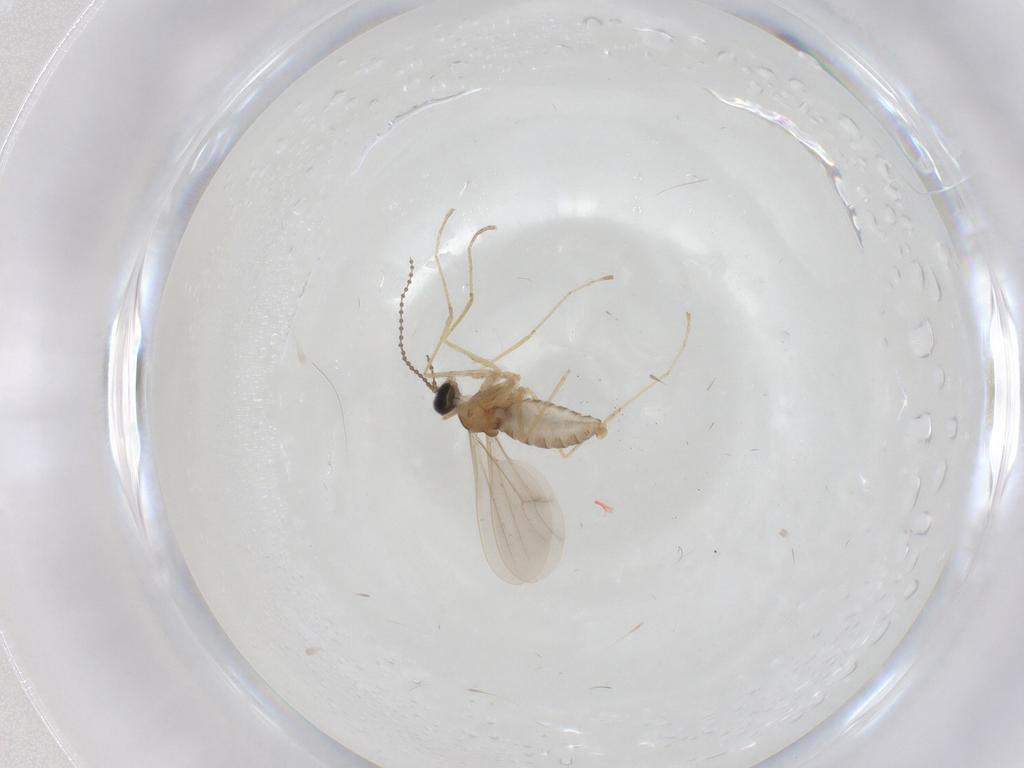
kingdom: Animalia
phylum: Arthropoda
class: Insecta
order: Diptera
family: Cecidomyiidae
